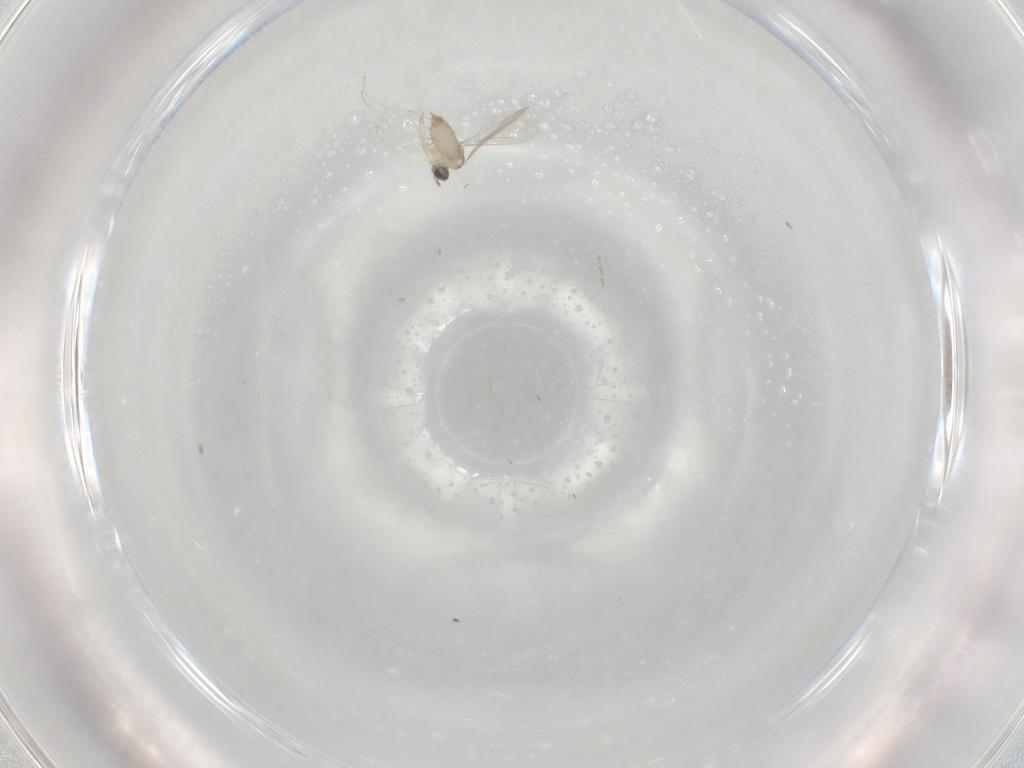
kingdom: Animalia
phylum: Arthropoda
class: Insecta
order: Diptera
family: Cecidomyiidae
